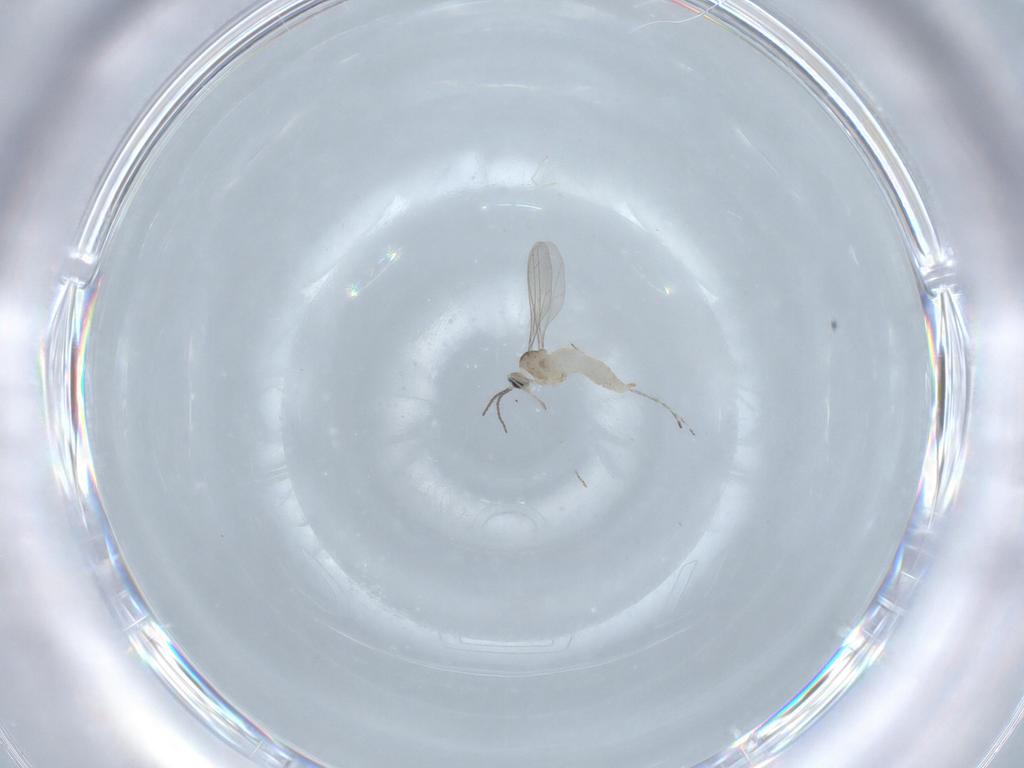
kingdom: Animalia
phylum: Arthropoda
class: Insecta
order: Diptera
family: Cecidomyiidae
